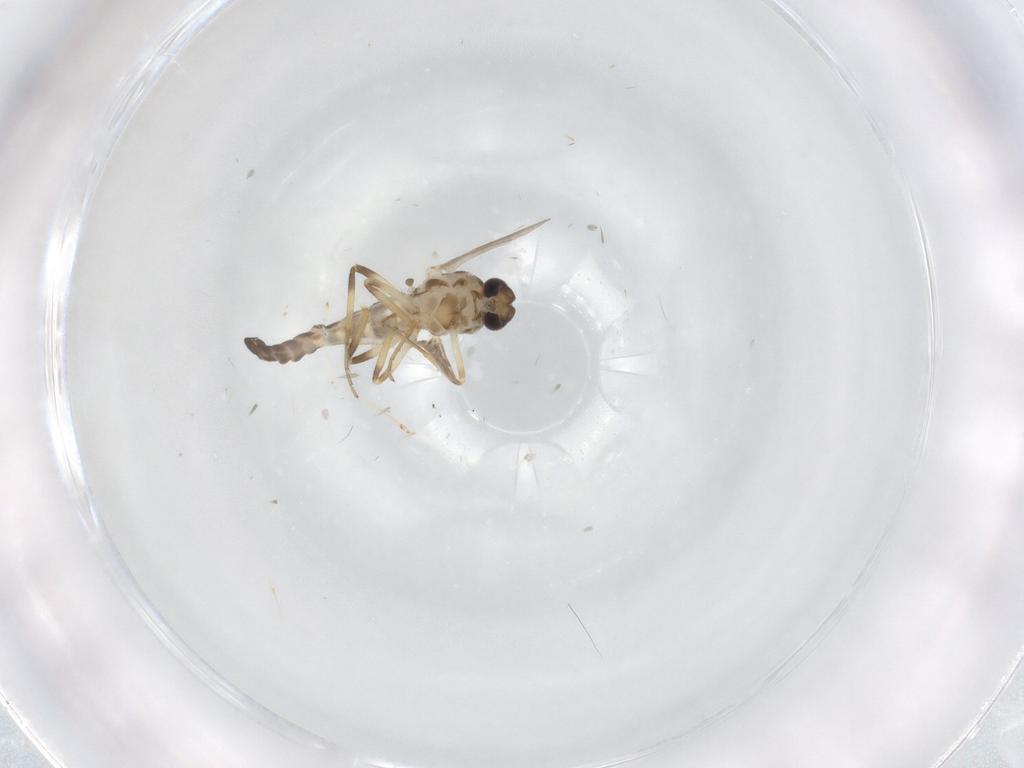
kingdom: Animalia
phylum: Arthropoda
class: Insecta
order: Diptera
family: Ceratopogonidae
